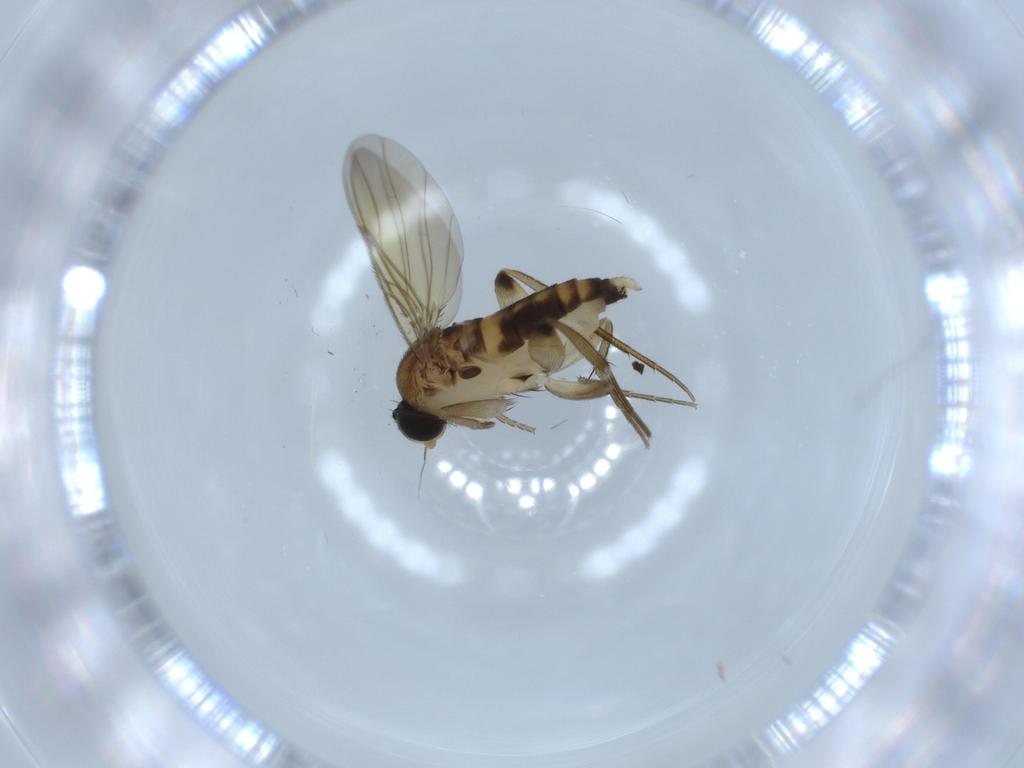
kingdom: Animalia
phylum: Arthropoda
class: Insecta
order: Diptera
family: Phoridae
